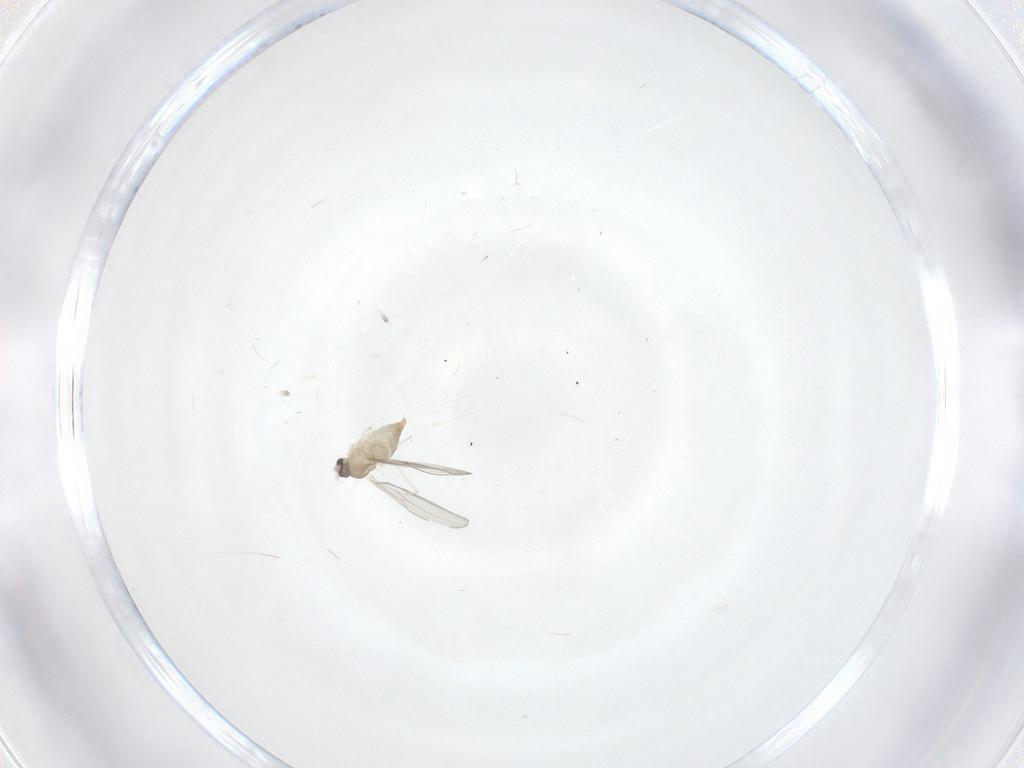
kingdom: Animalia
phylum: Arthropoda
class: Insecta
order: Diptera
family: Cecidomyiidae
